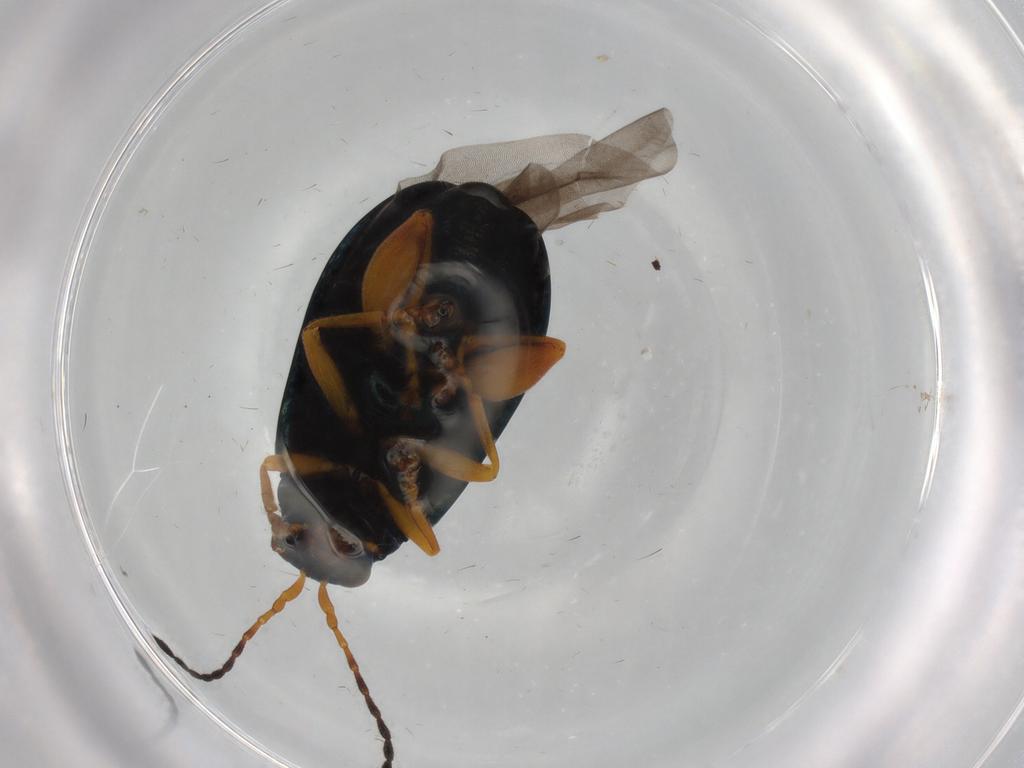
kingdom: Animalia
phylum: Arthropoda
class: Insecta
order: Coleoptera
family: Chrysomelidae
